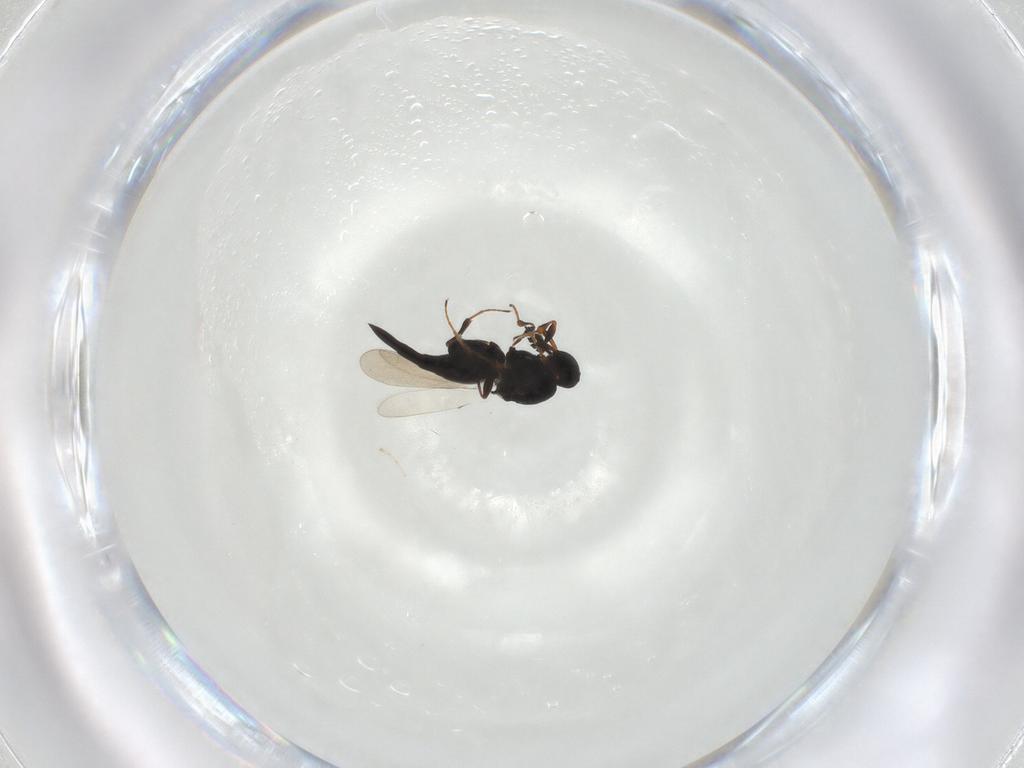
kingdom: Animalia
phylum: Arthropoda
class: Insecta
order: Hymenoptera
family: Platygastridae
